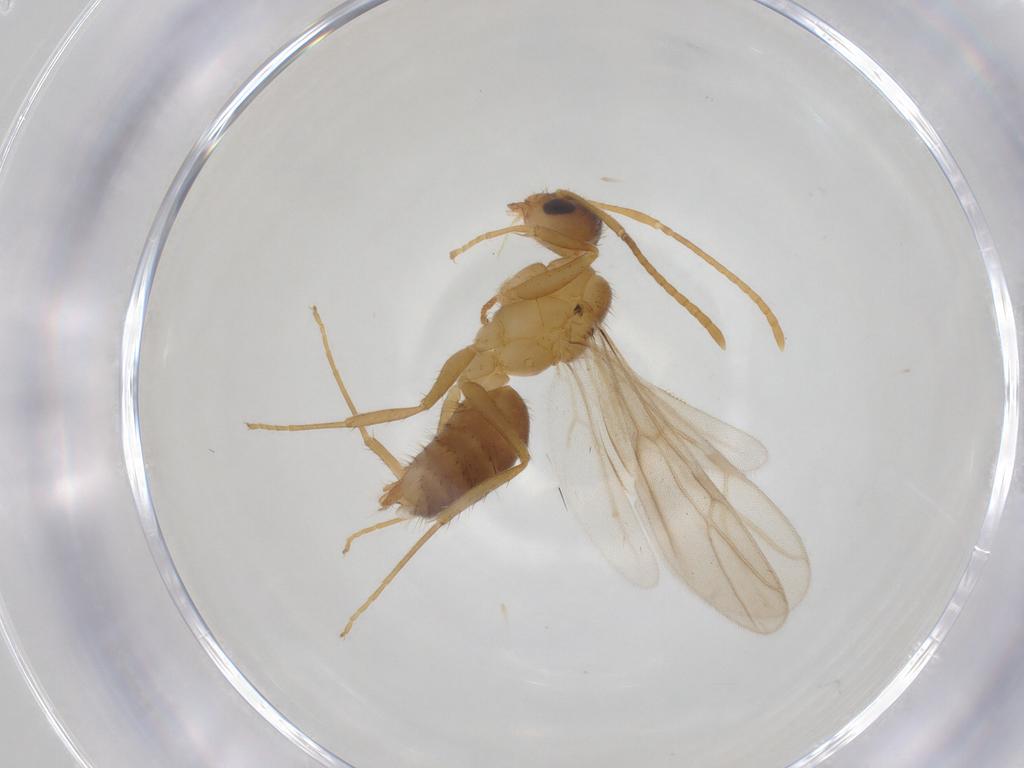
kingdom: Animalia
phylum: Arthropoda
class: Insecta
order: Hymenoptera
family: Formicidae
